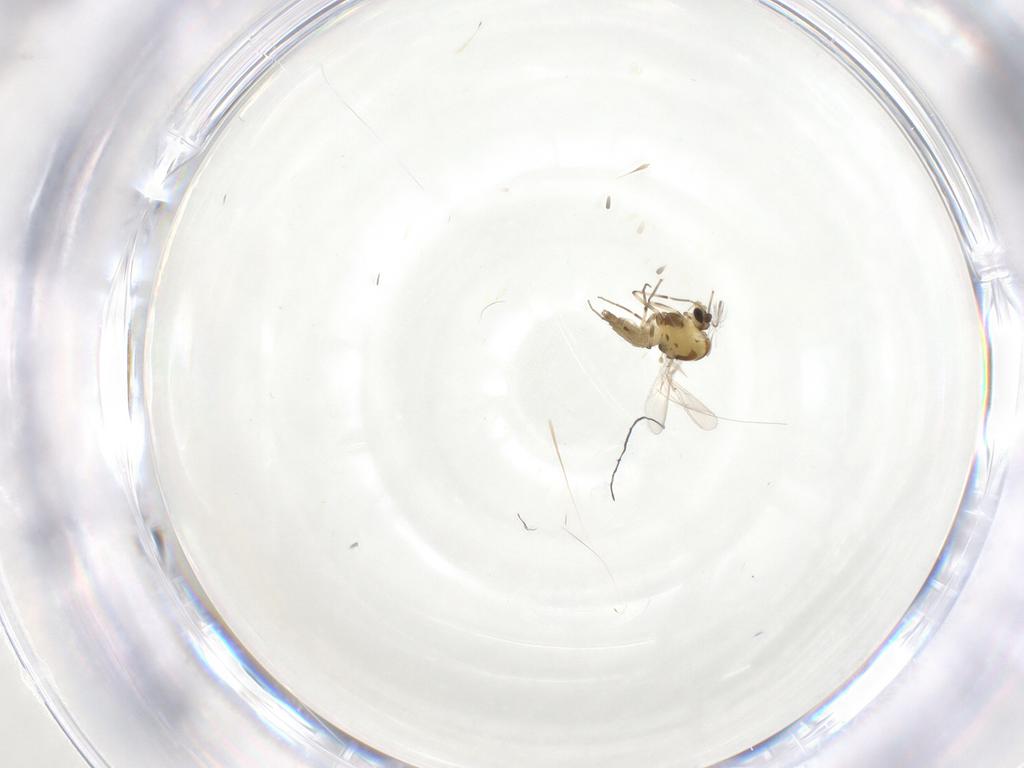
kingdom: Animalia
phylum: Arthropoda
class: Insecta
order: Diptera
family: Chironomidae
